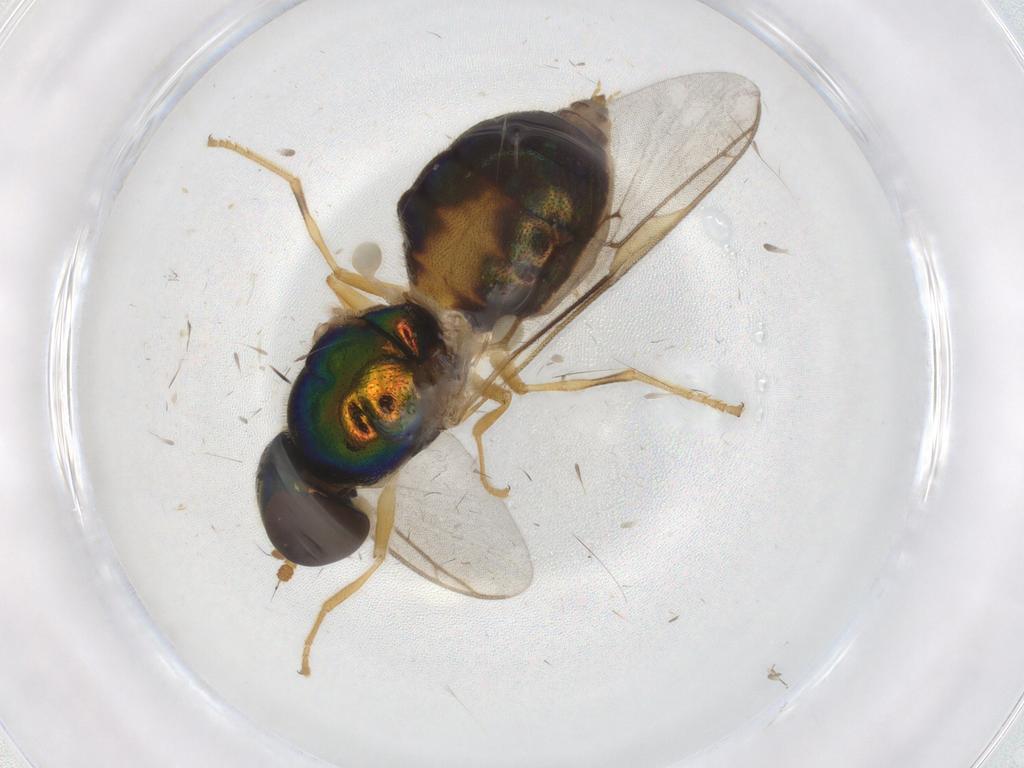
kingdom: Animalia
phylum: Arthropoda
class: Insecta
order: Diptera
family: Sciaridae
